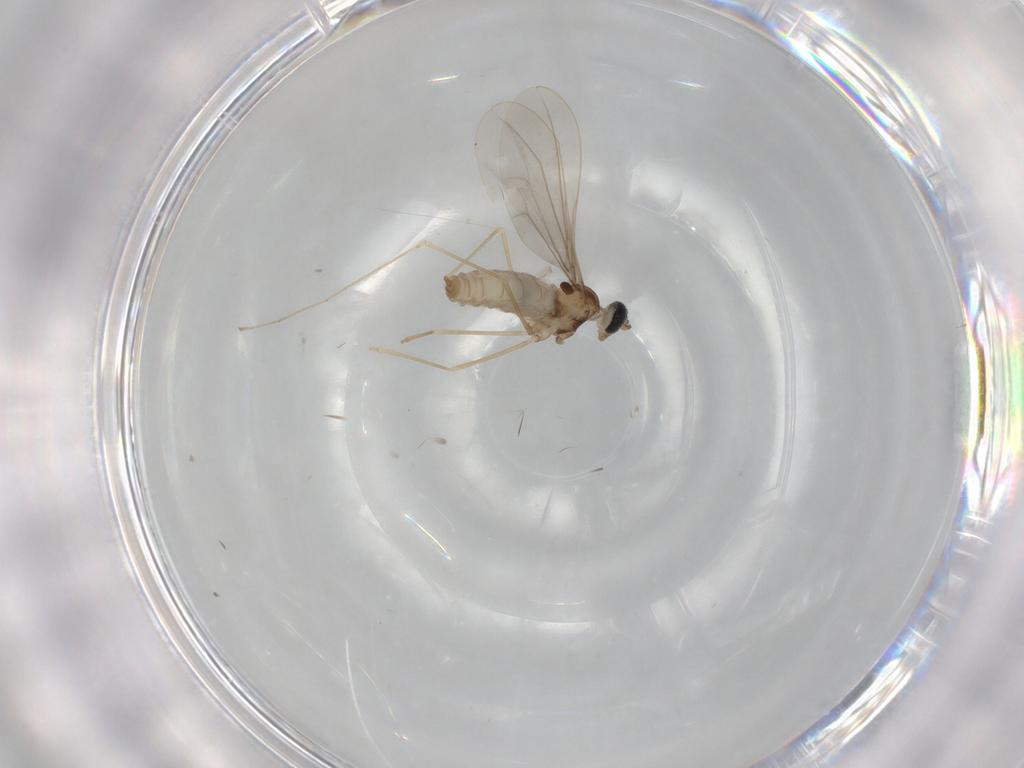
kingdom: Animalia
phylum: Arthropoda
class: Insecta
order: Diptera
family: Cecidomyiidae
